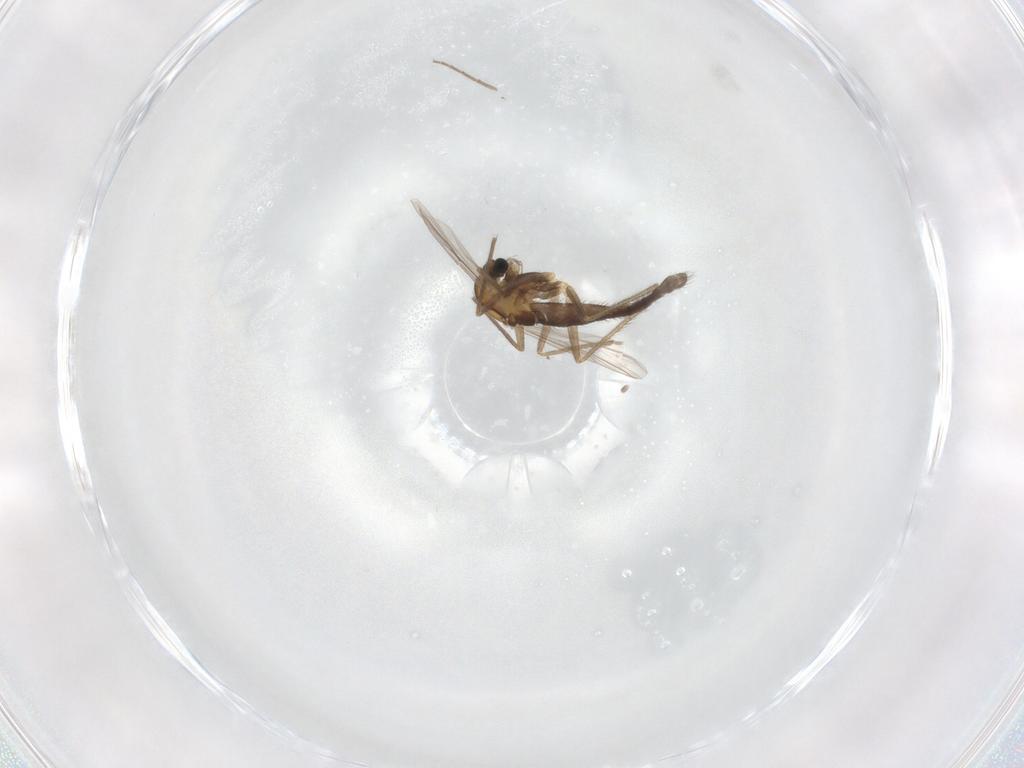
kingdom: Animalia
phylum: Arthropoda
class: Insecta
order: Diptera
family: Chironomidae
